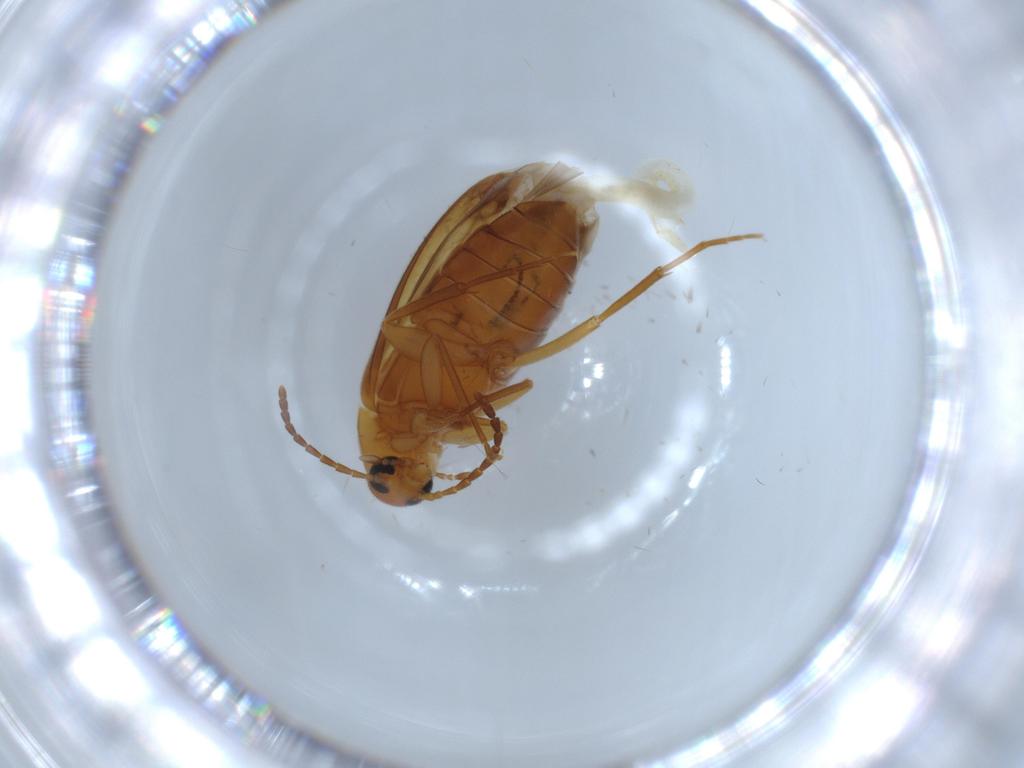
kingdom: Animalia
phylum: Arthropoda
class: Insecta
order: Coleoptera
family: Scraptiidae
